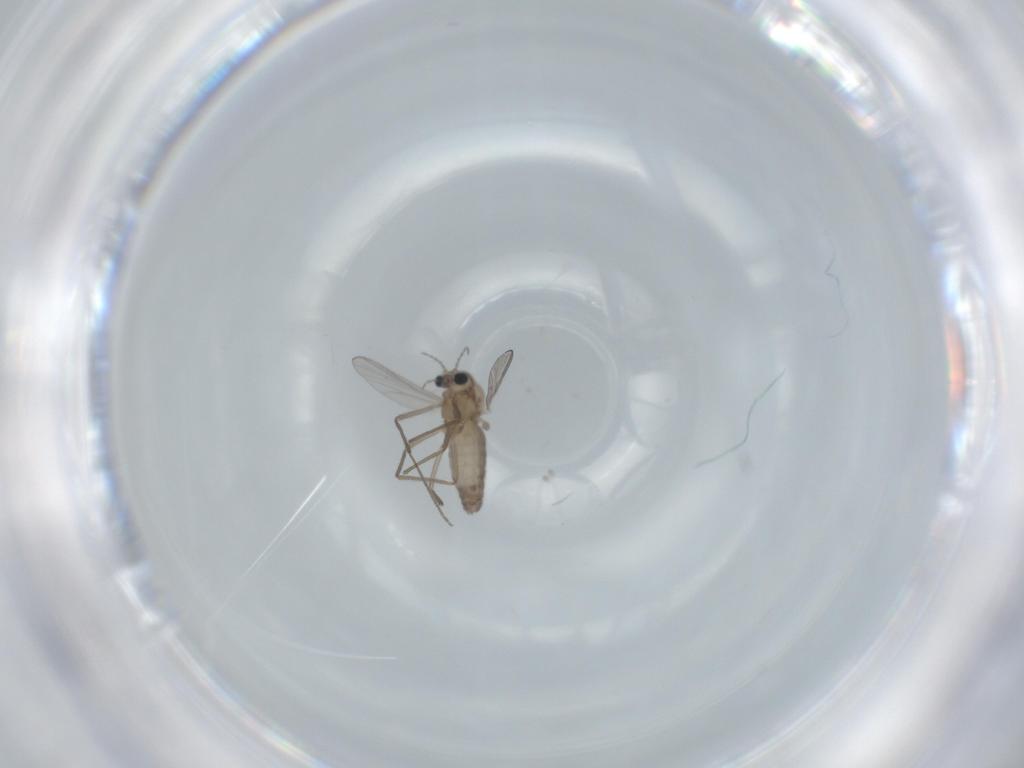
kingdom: Animalia
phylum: Arthropoda
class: Insecta
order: Diptera
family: Chironomidae
